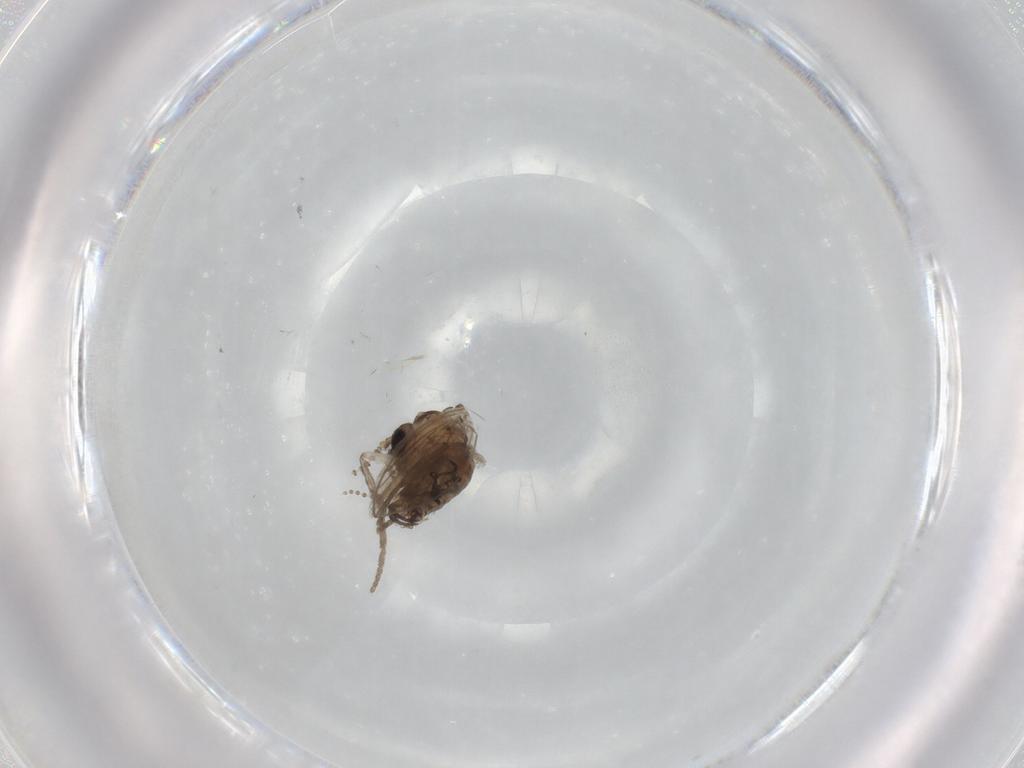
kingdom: Animalia
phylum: Arthropoda
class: Insecta
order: Diptera
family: Psychodidae
